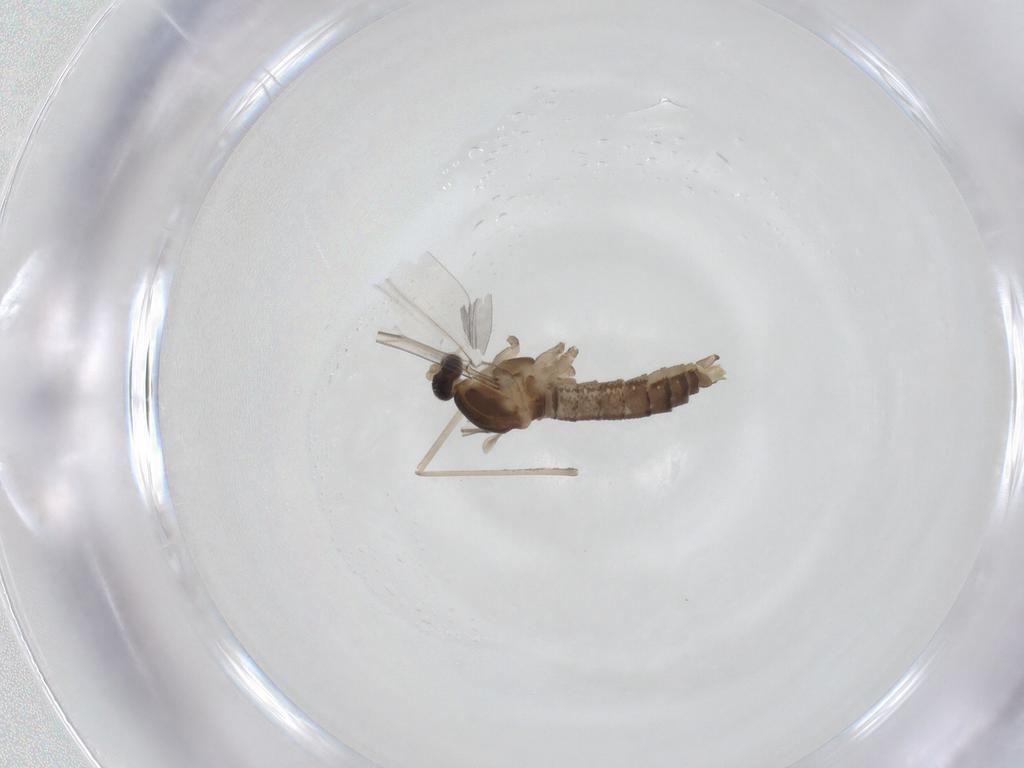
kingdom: Animalia
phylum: Arthropoda
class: Insecta
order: Diptera
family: Cecidomyiidae
